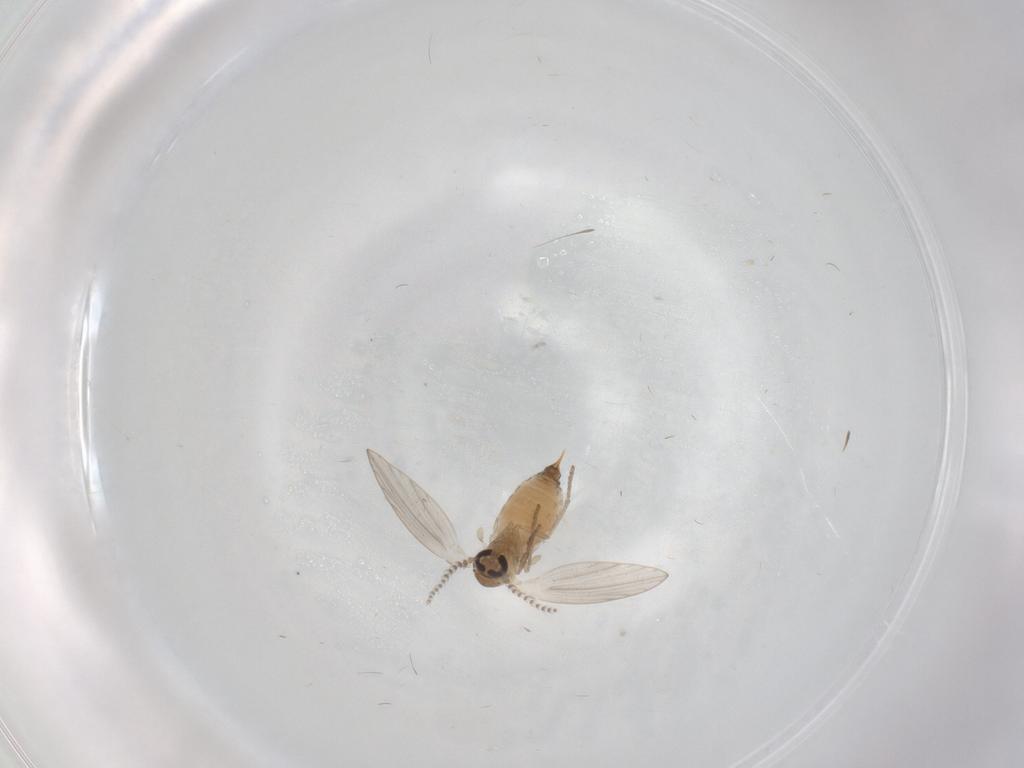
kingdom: Animalia
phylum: Arthropoda
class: Insecta
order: Diptera
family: Psychodidae
